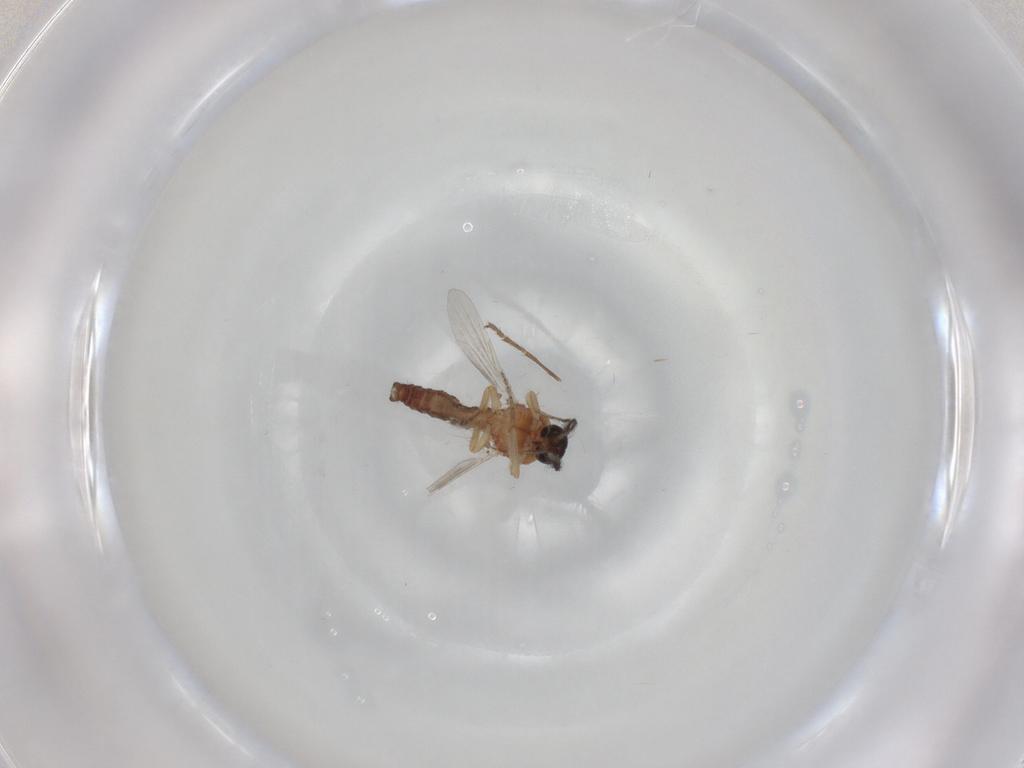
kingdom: Animalia
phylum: Arthropoda
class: Insecta
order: Diptera
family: Ceratopogonidae
